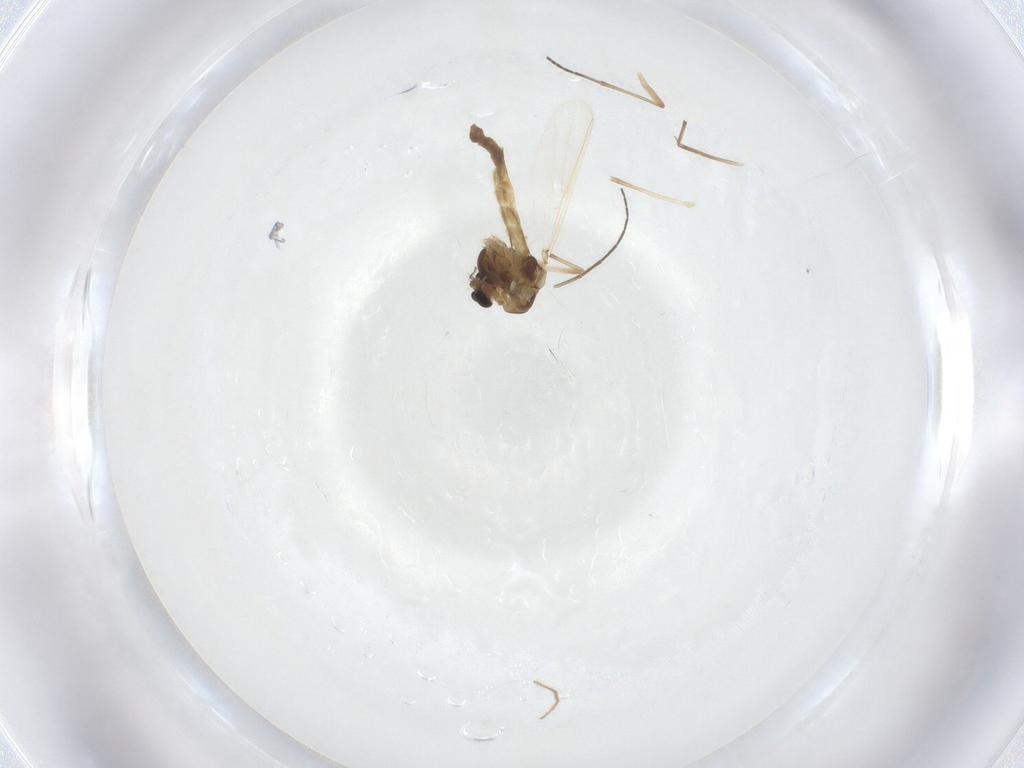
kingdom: Animalia
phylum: Arthropoda
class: Insecta
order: Diptera
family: Chironomidae
